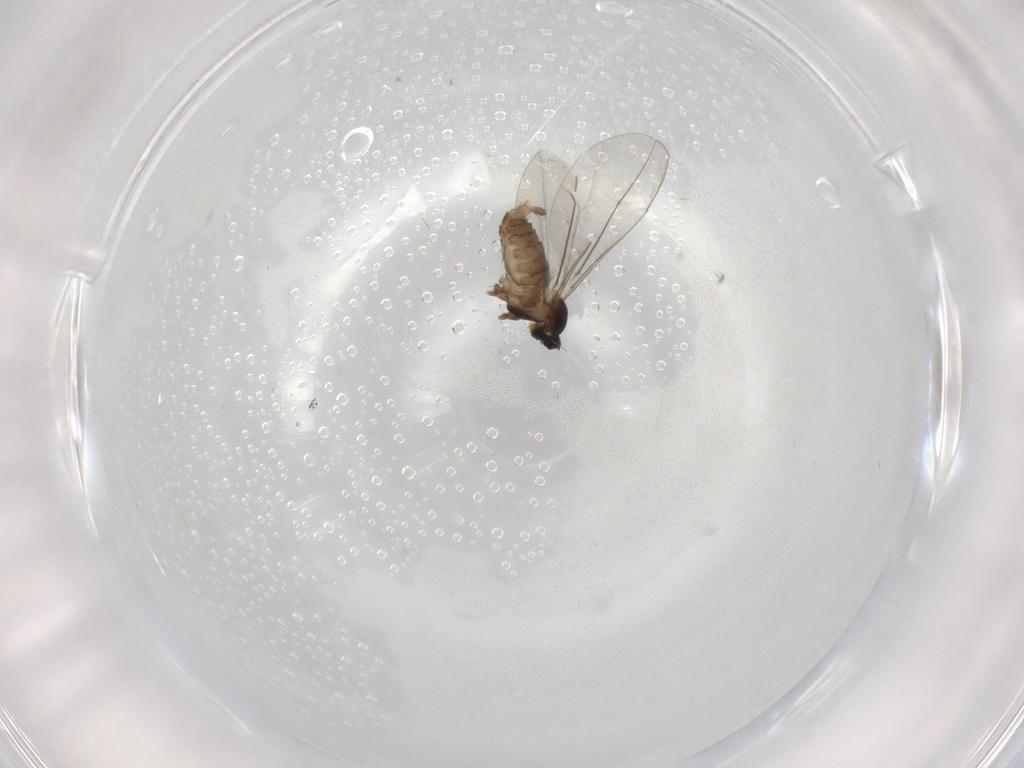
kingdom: Animalia
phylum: Arthropoda
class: Insecta
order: Diptera
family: Cecidomyiidae
